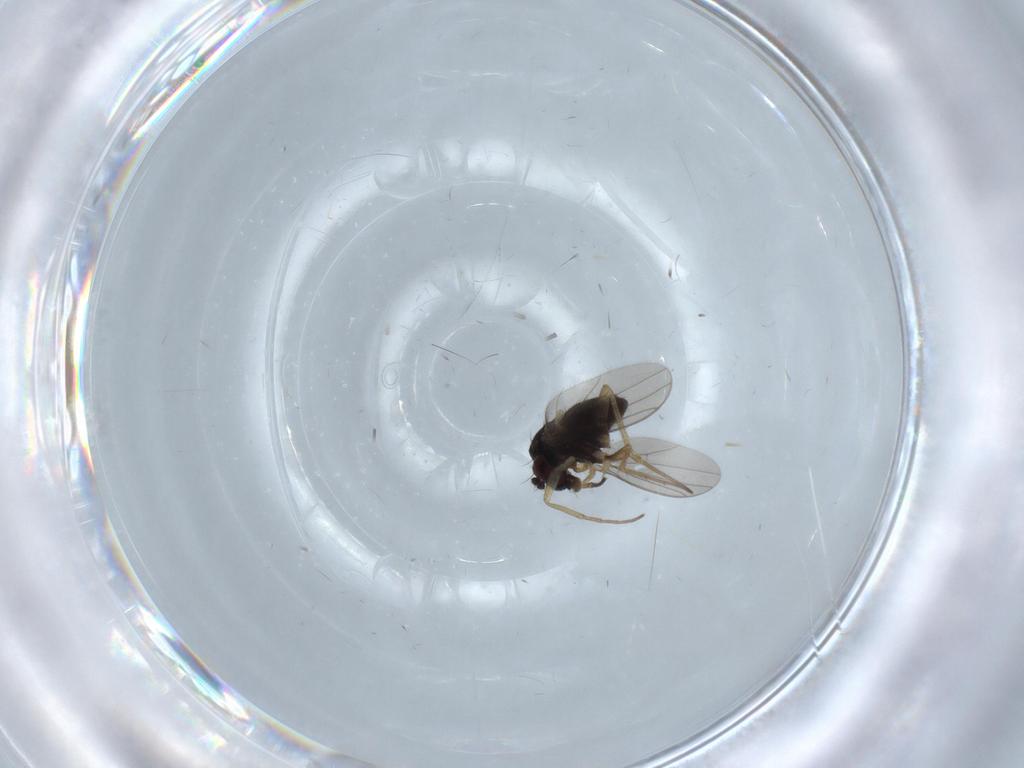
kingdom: Animalia
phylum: Arthropoda
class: Insecta
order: Diptera
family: Dolichopodidae
